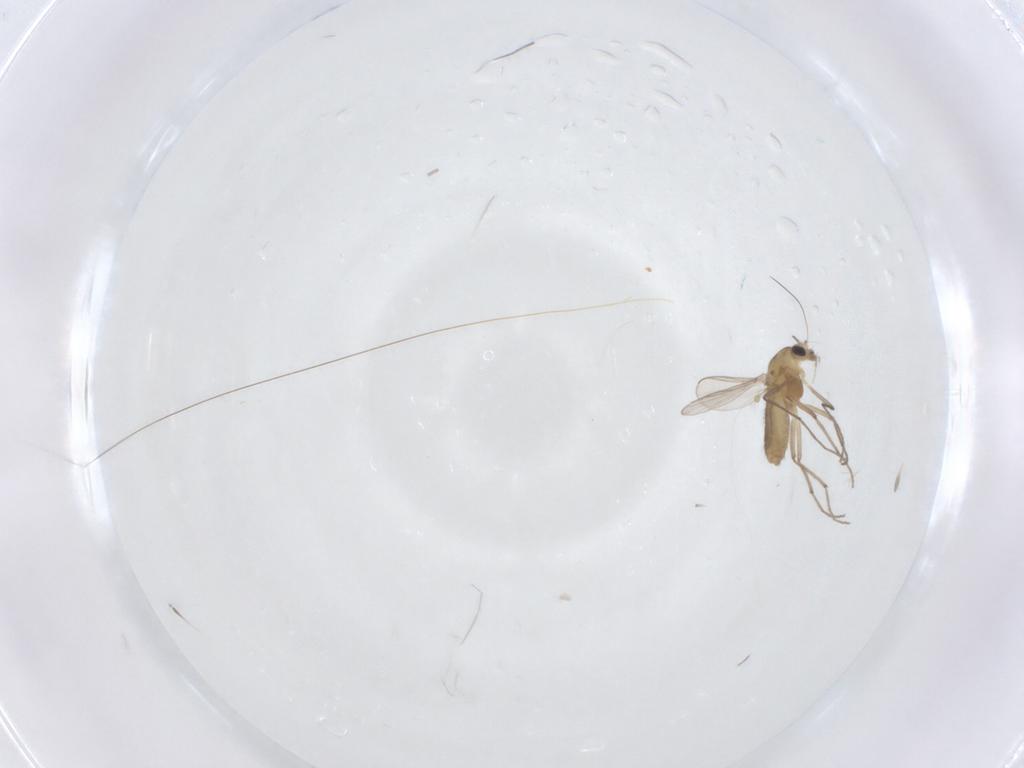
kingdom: Animalia
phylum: Arthropoda
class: Insecta
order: Diptera
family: Chironomidae
